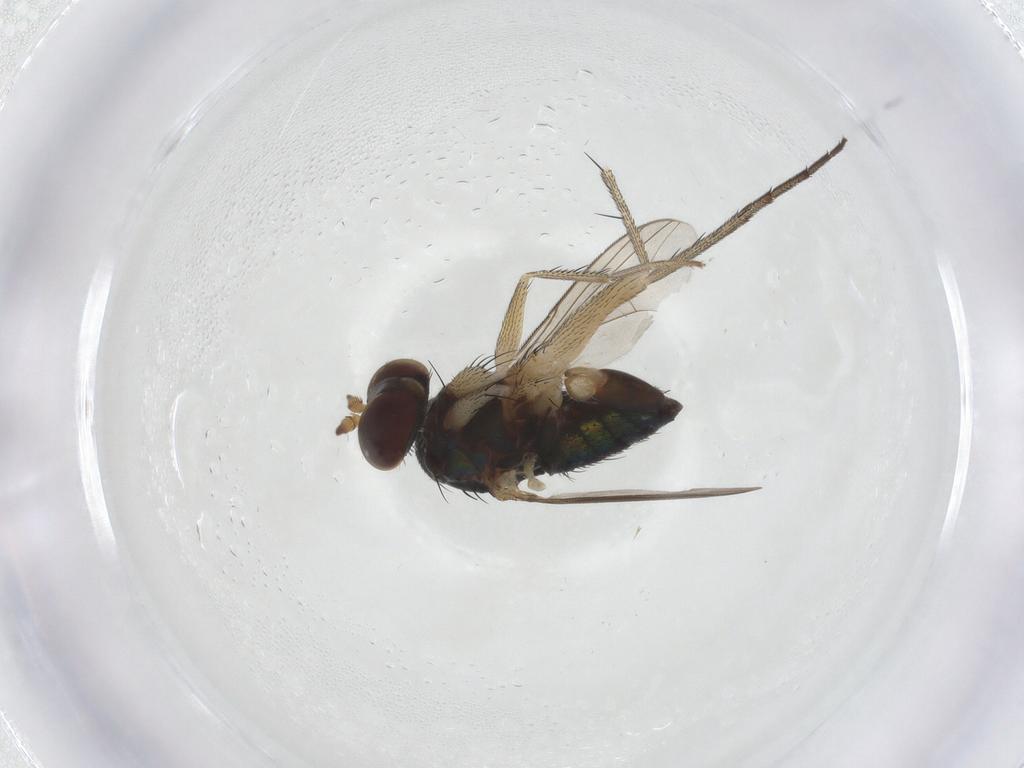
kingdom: Animalia
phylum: Arthropoda
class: Insecta
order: Diptera
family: Dolichopodidae
